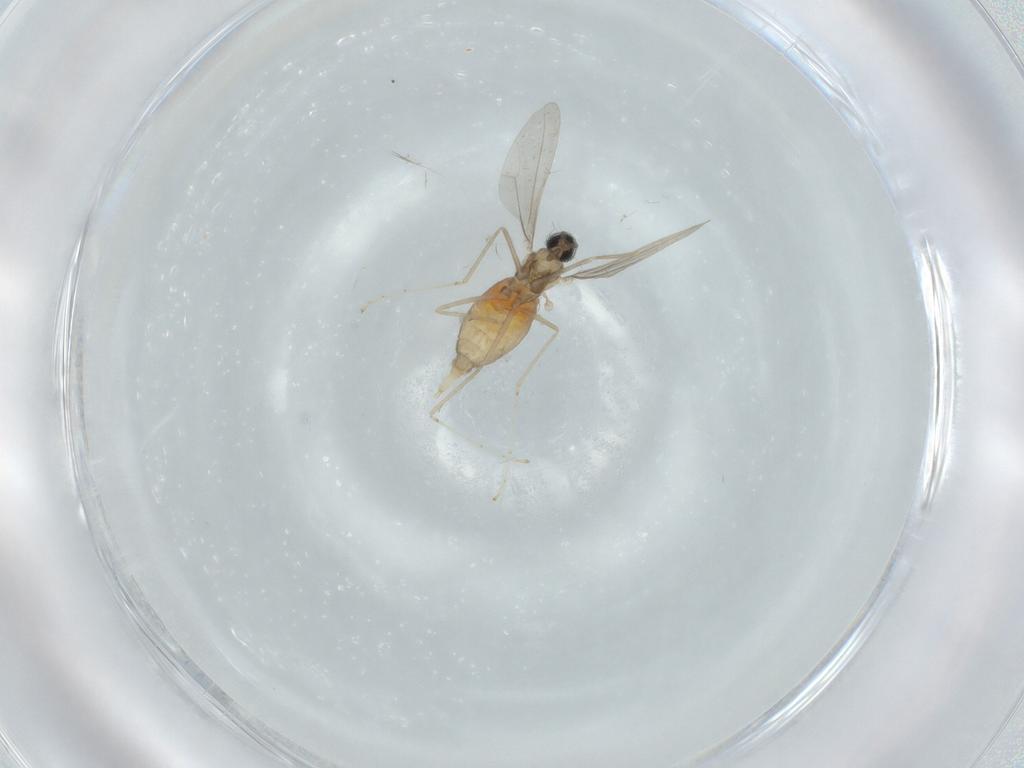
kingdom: Animalia
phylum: Arthropoda
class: Insecta
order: Diptera
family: Cecidomyiidae
